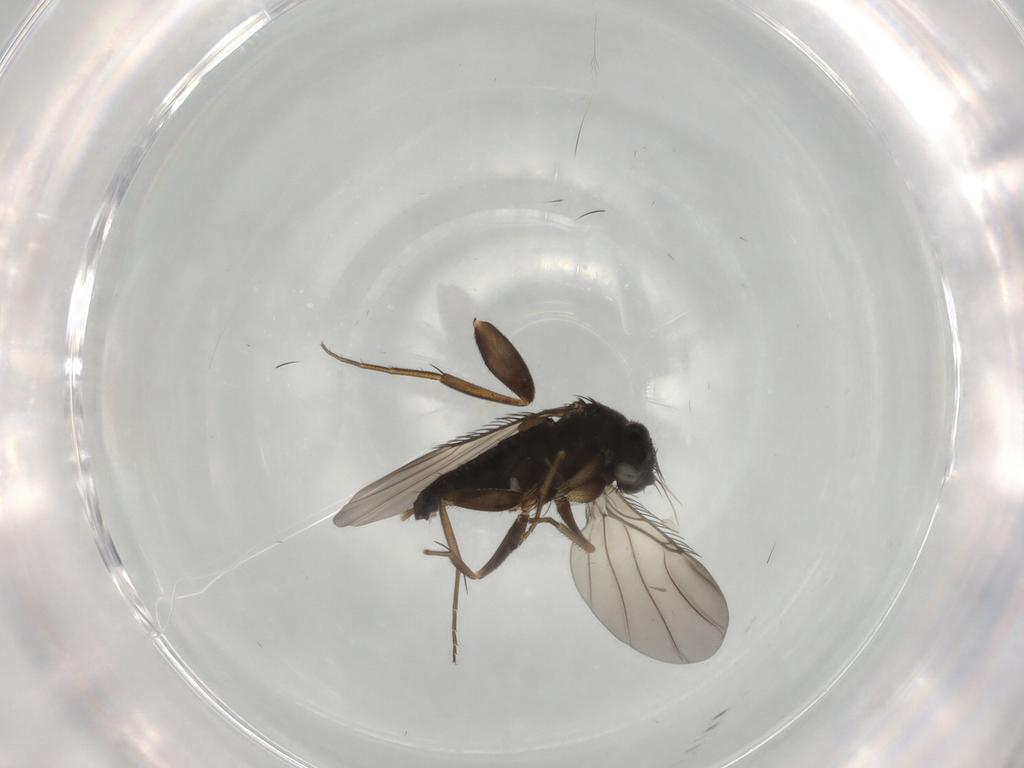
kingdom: Animalia
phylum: Arthropoda
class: Insecta
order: Diptera
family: Phoridae
